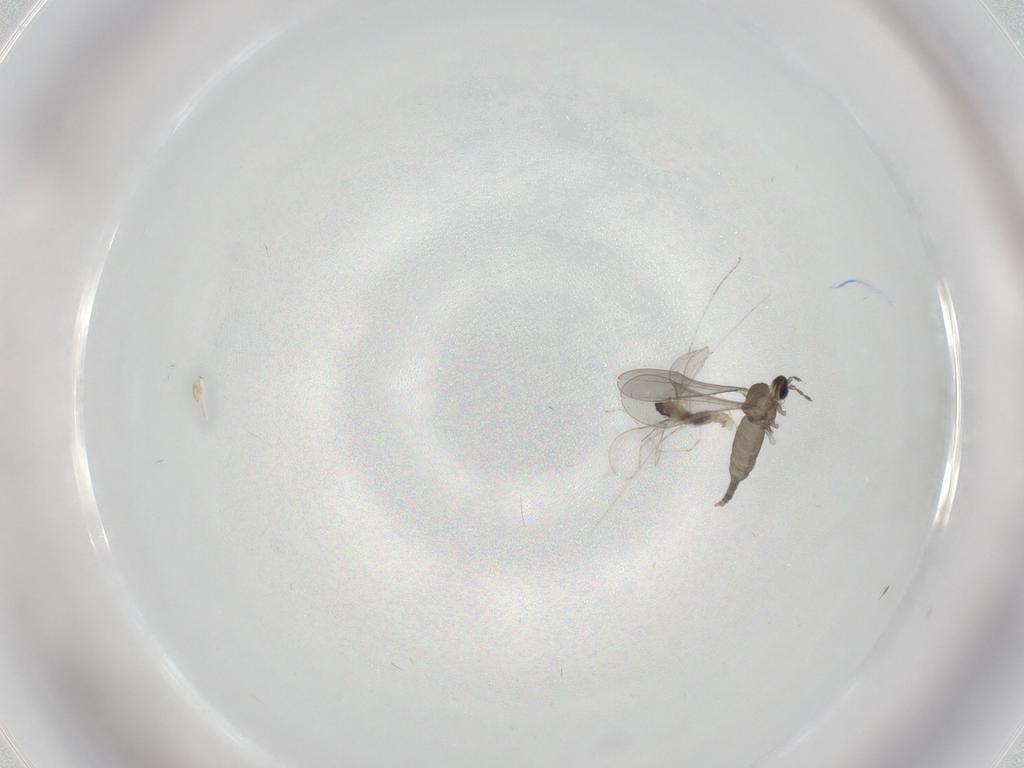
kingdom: Animalia
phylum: Arthropoda
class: Insecta
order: Diptera
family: Cecidomyiidae
